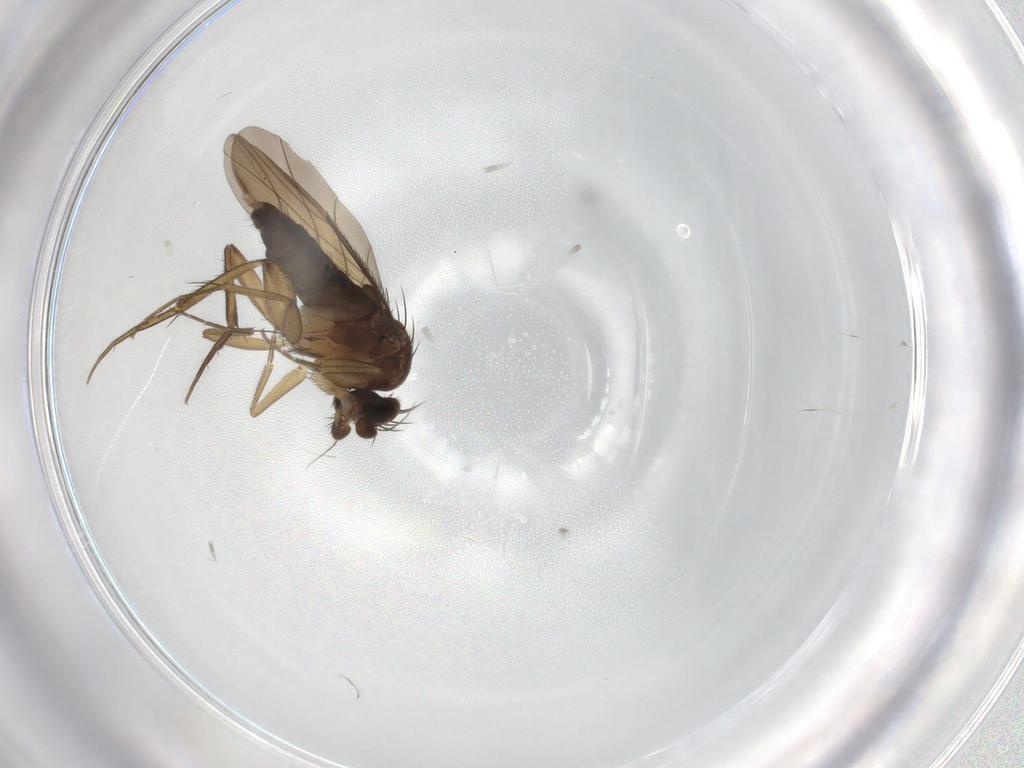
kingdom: Animalia
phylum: Arthropoda
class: Insecta
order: Diptera
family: Phoridae
